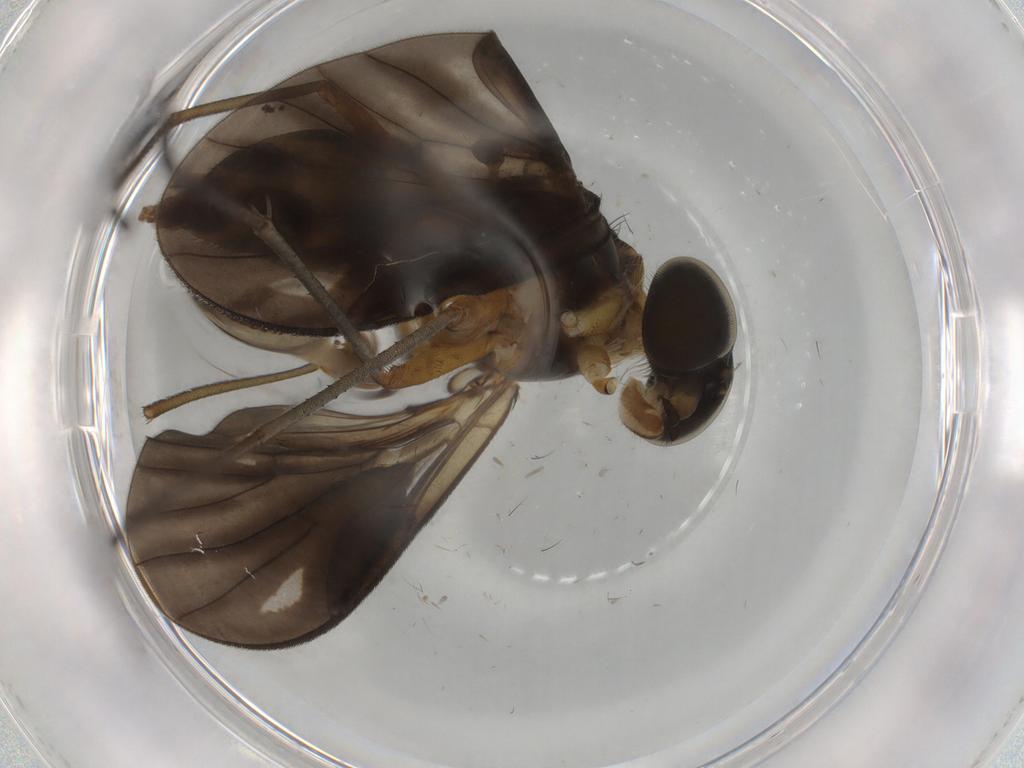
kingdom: Animalia
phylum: Arthropoda
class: Insecta
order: Diptera
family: Cecidomyiidae
